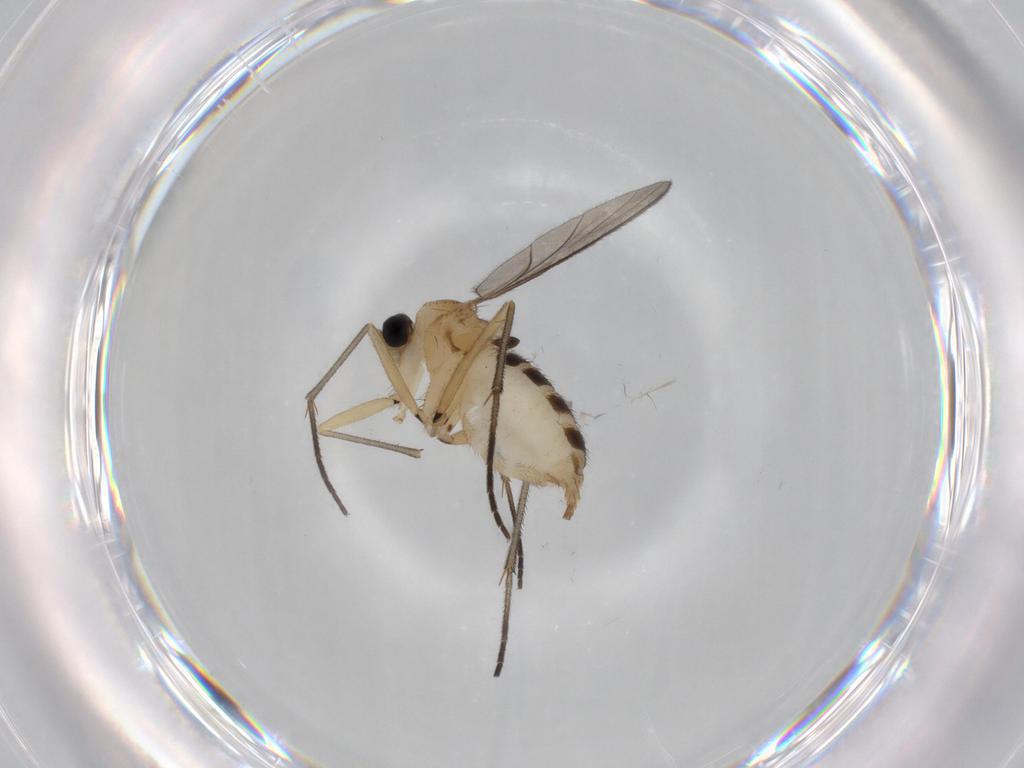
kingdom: Animalia
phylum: Arthropoda
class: Insecta
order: Diptera
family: Sciaridae
